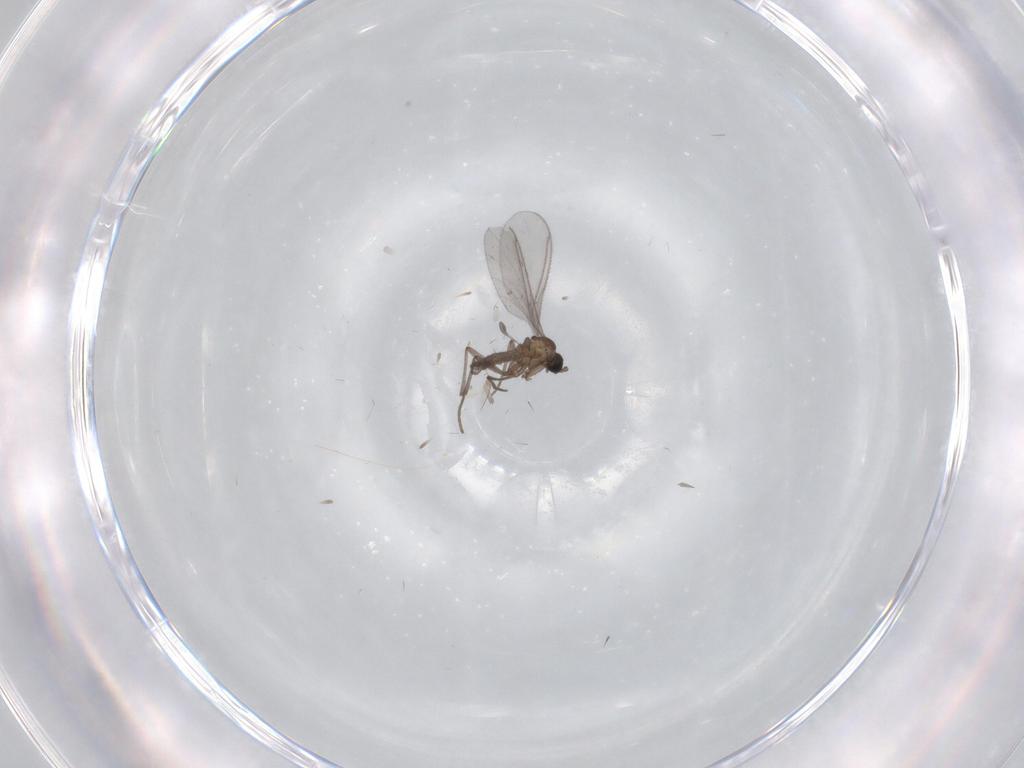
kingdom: Animalia
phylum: Arthropoda
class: Insecta
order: Diptera
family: Sciaridae
